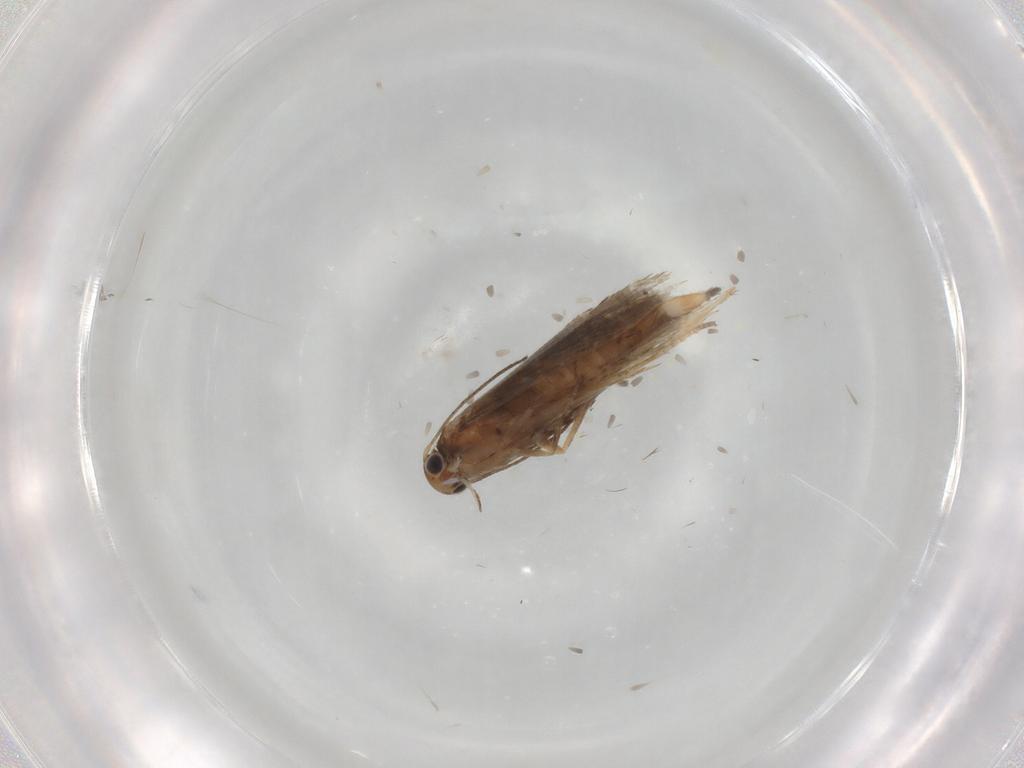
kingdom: Animalia
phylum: Arthropoda
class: Insecta
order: Lepidoptera
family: Glyphipterigidae
